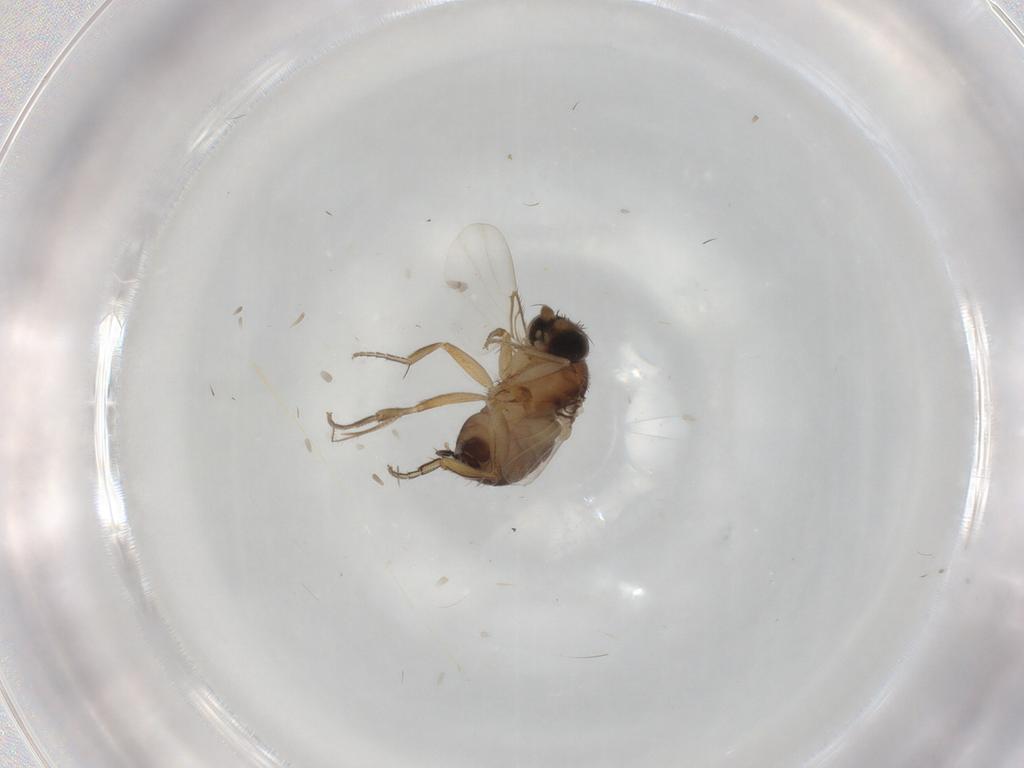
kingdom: Animalia
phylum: Arthropoda
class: Insecta
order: Diptera
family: Phoridae
